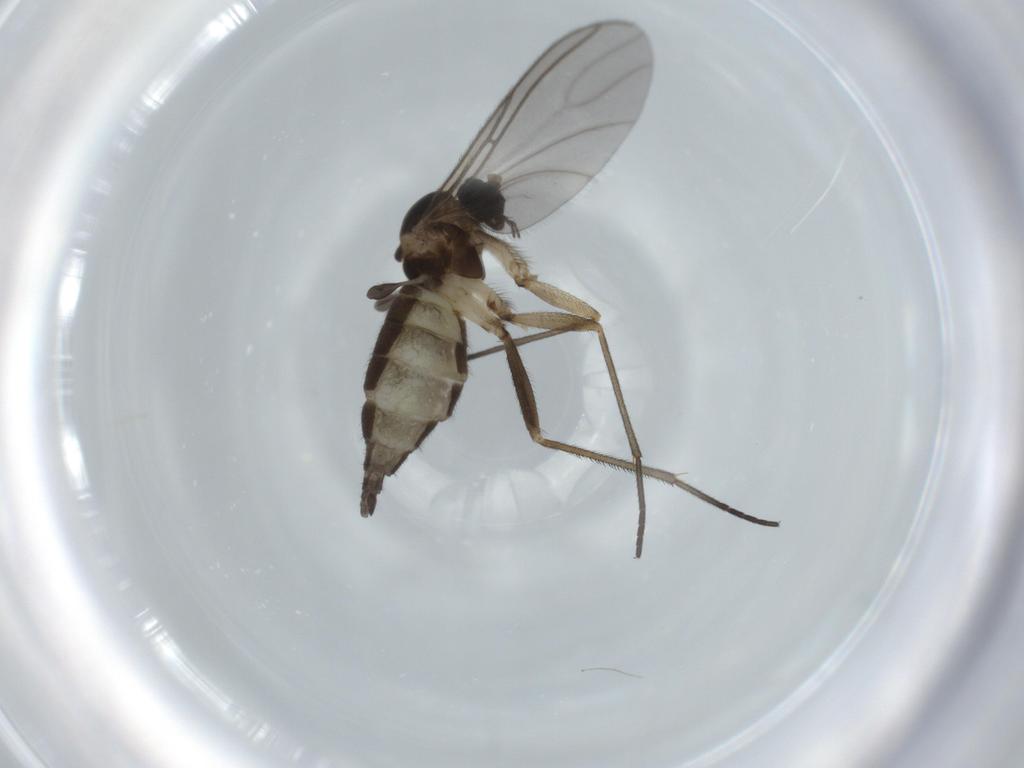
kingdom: Animalia
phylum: Arthropoda
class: Insecta
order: Diptera
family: Sciaridae
